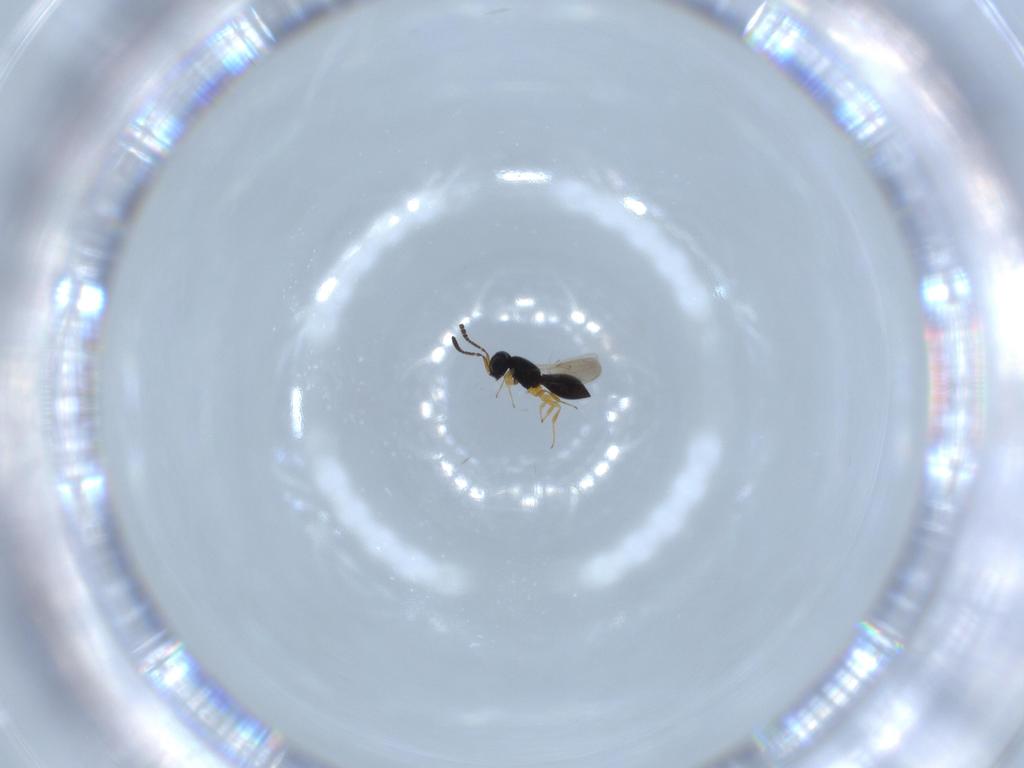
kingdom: Animalia
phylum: Arthropoda
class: Insecta
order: Hymenoptera
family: Scelionidae
